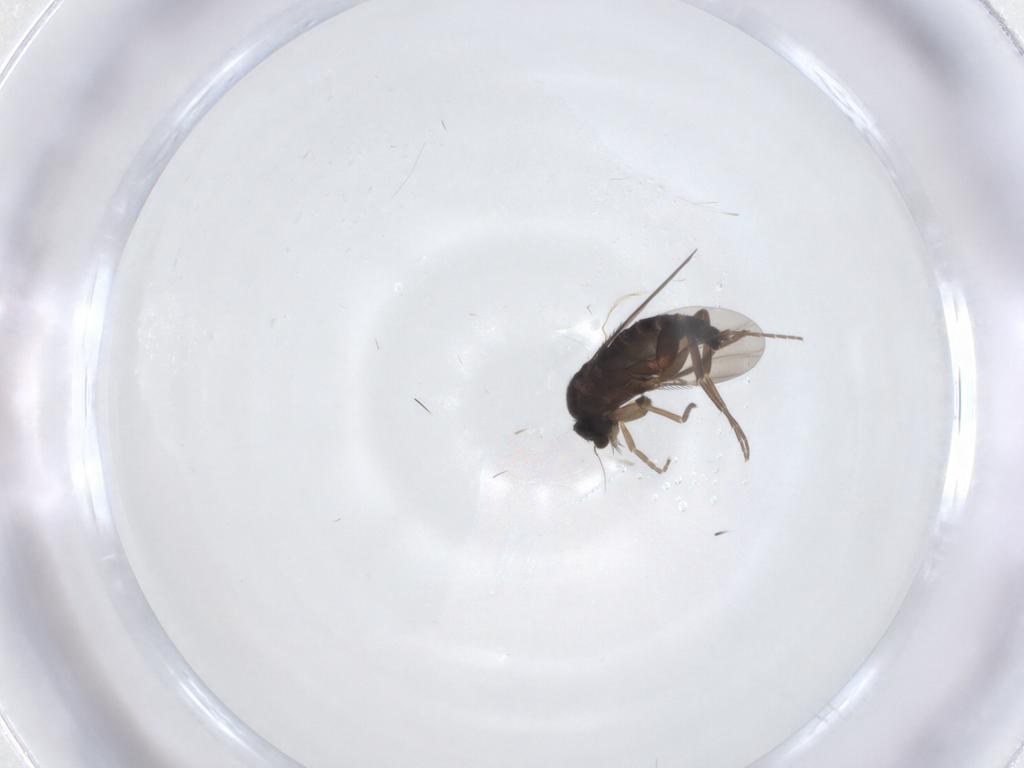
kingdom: Animalia
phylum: Arthropoda
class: Insecta
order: Diptera
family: Phoridae
